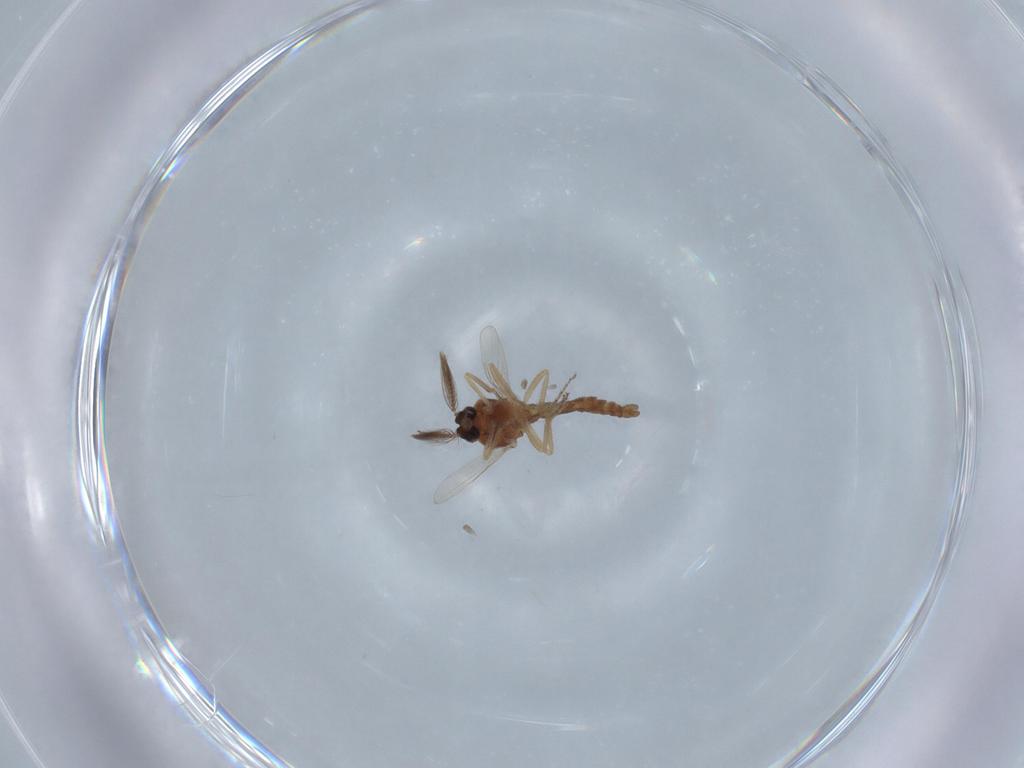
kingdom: Animalia
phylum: Arthropoda
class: Insecta
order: Diptera
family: Ceratopogonidae
